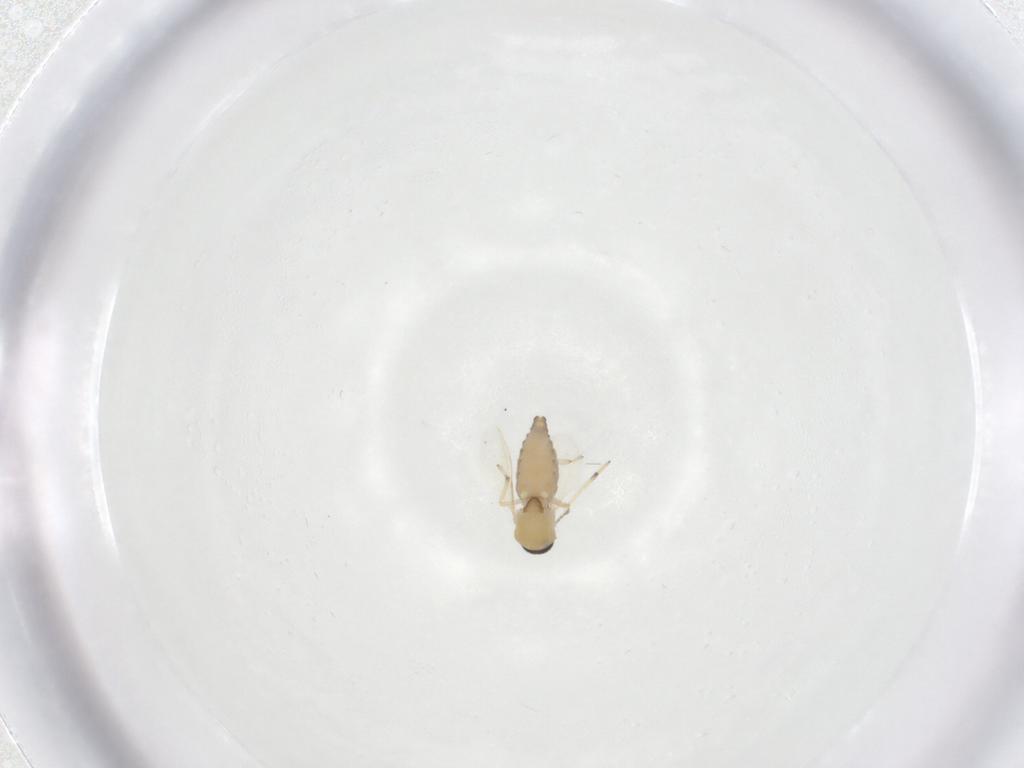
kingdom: Animalia
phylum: Arthropoda
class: Insecta
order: Diptera
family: Ceratopogonidae
